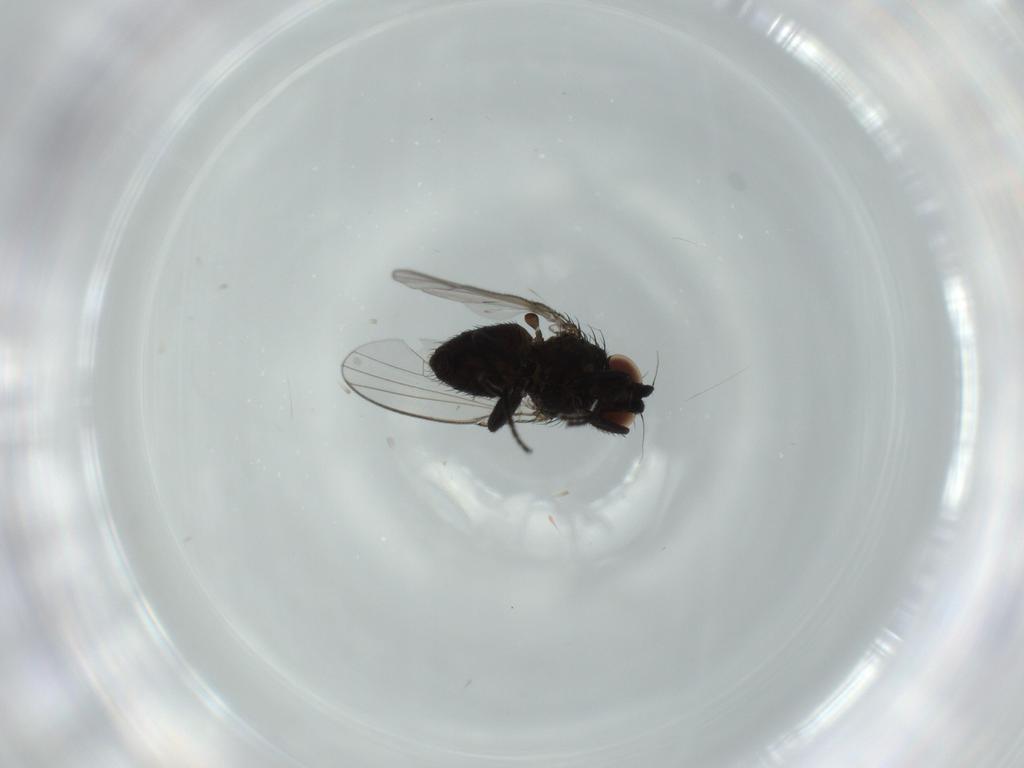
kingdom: Animalia
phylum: Arthropoda
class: Insecta
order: Diptera
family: Milichiidae
